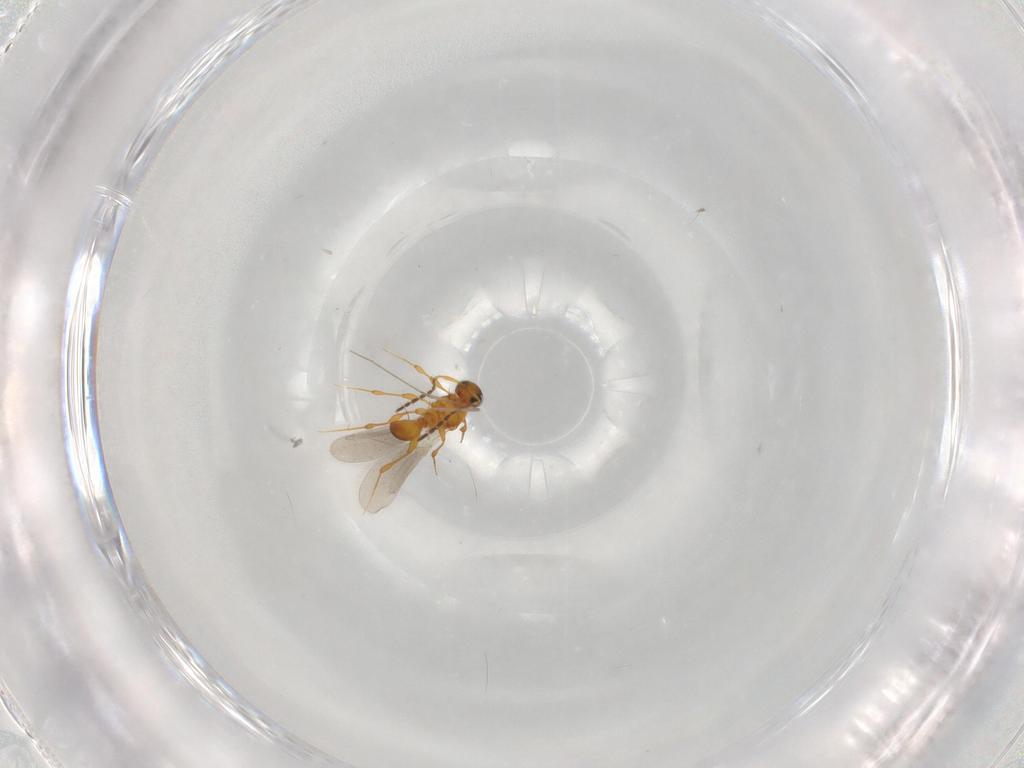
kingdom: Animalia
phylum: Arthropoda
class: Insecta
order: Hymenoptera
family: Platygastridae
